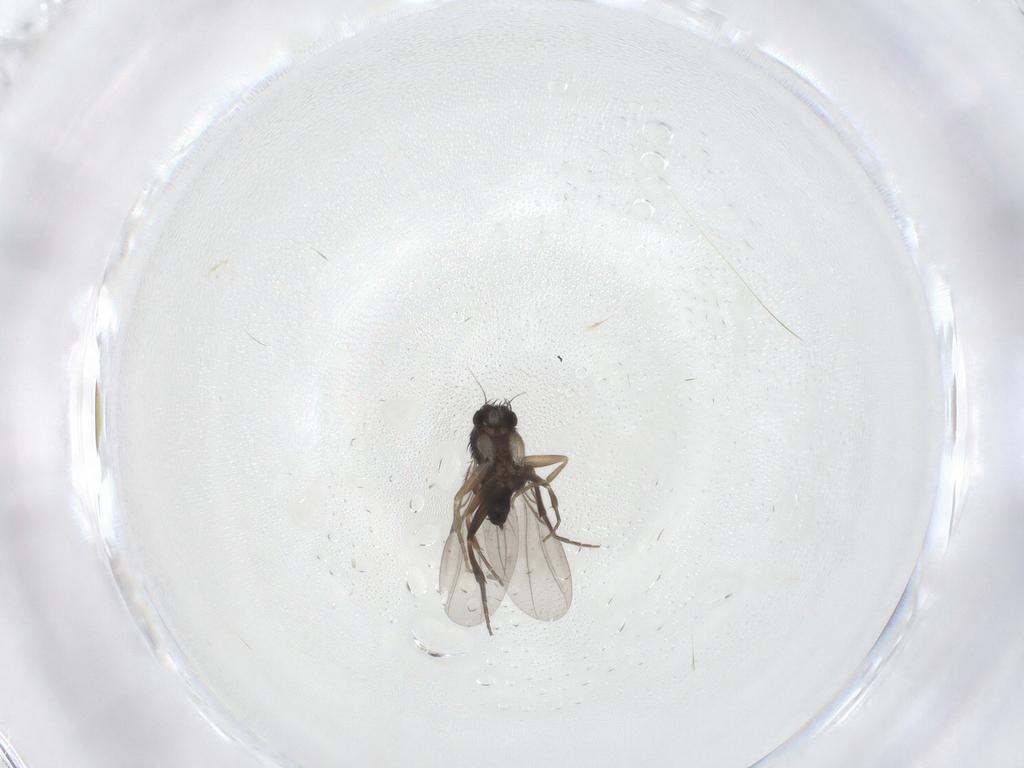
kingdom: Animalia
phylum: Arthropoda
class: Insecta
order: Diptera
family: Phoridae
